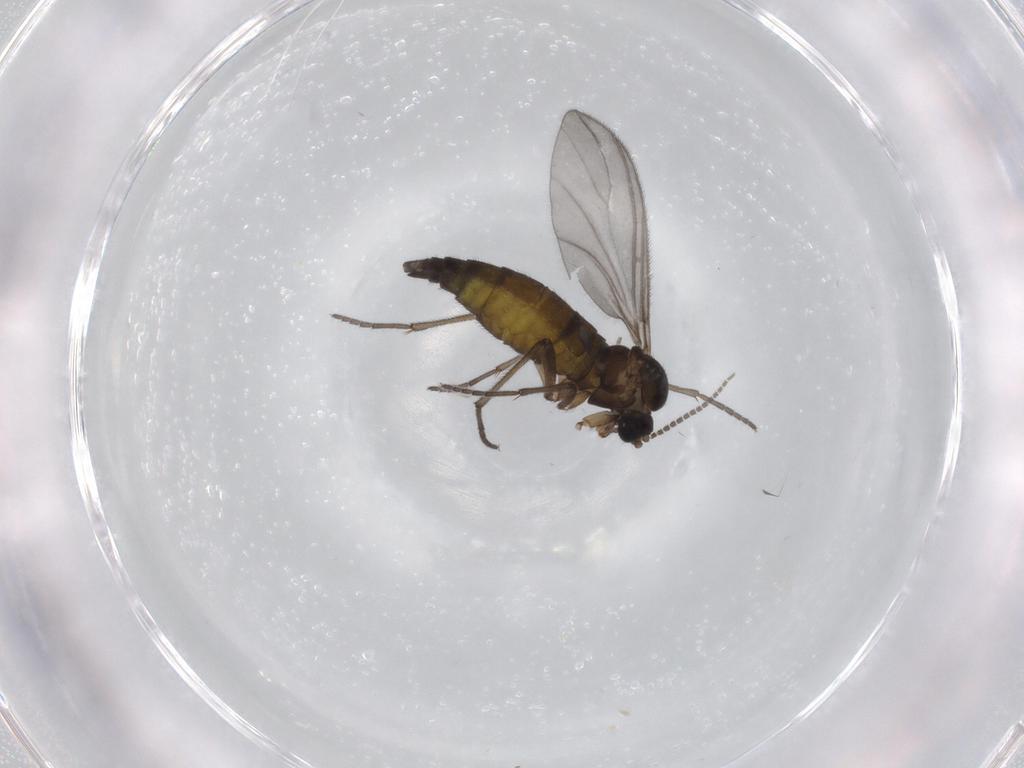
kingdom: Animalia
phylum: Arthropoda
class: Insecta
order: Diptera
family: Sciaridae
